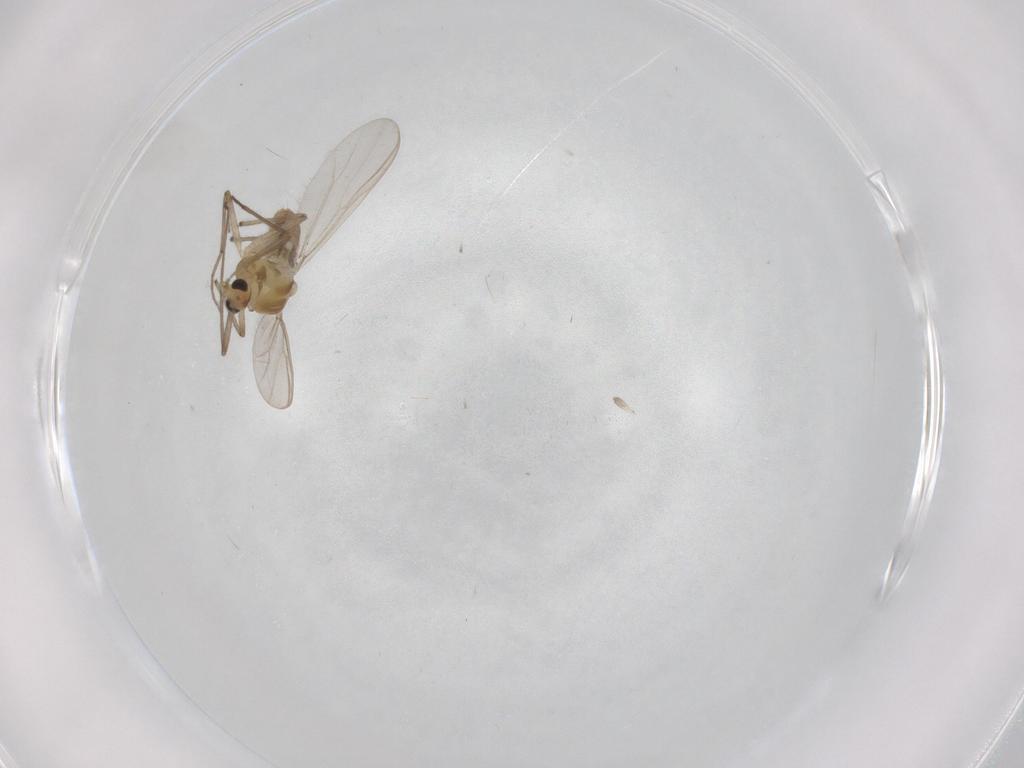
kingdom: Animalia
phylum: Arthropoda
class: Insecta
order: Diptera
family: Chironomidae
